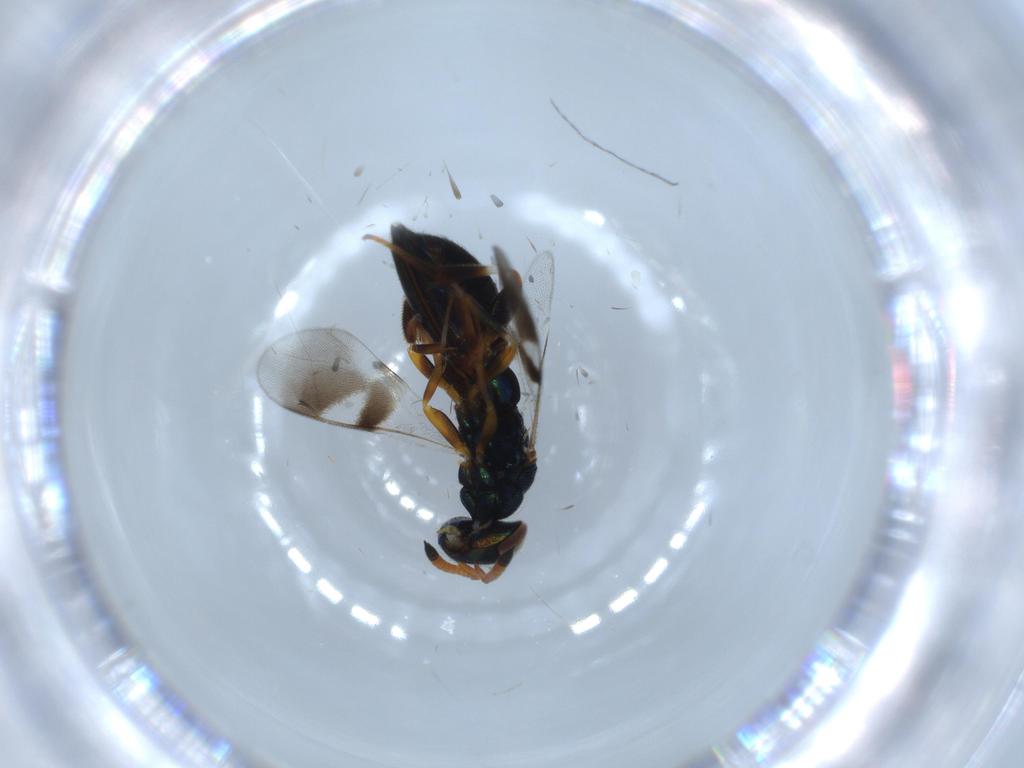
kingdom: Animalia
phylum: Arthropoda
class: Insecta
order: Hymenoptera
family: Cleonyminae
